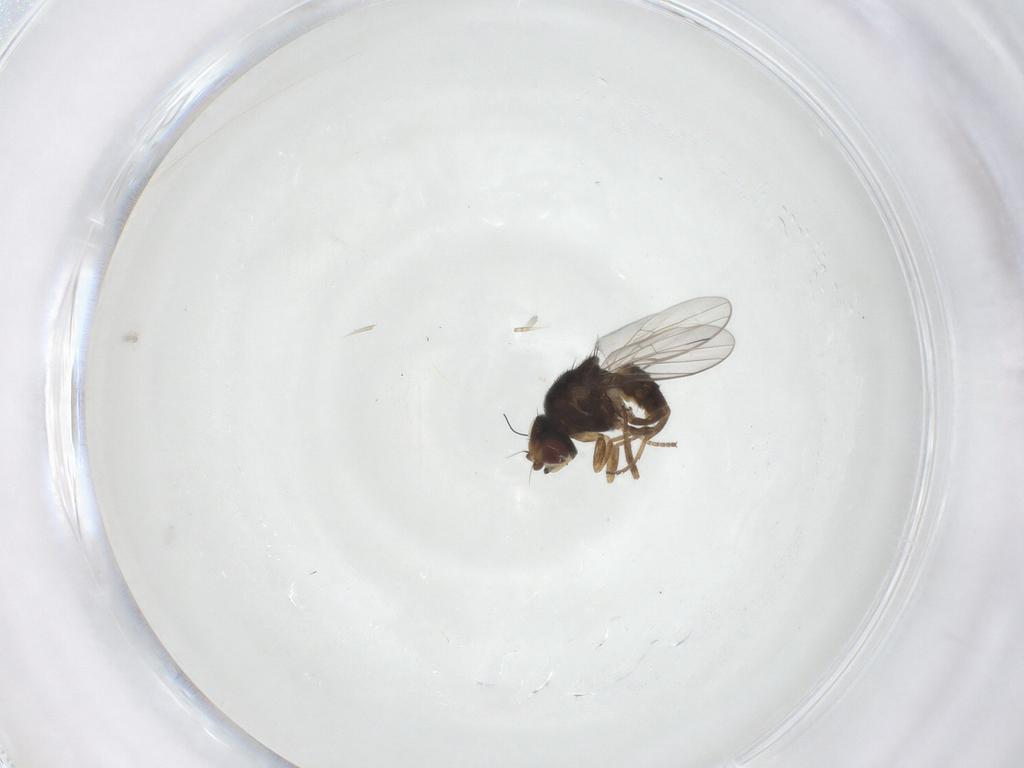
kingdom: Animalia
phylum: Arthropoda
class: Insecta
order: Diptera
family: Chloropidae
